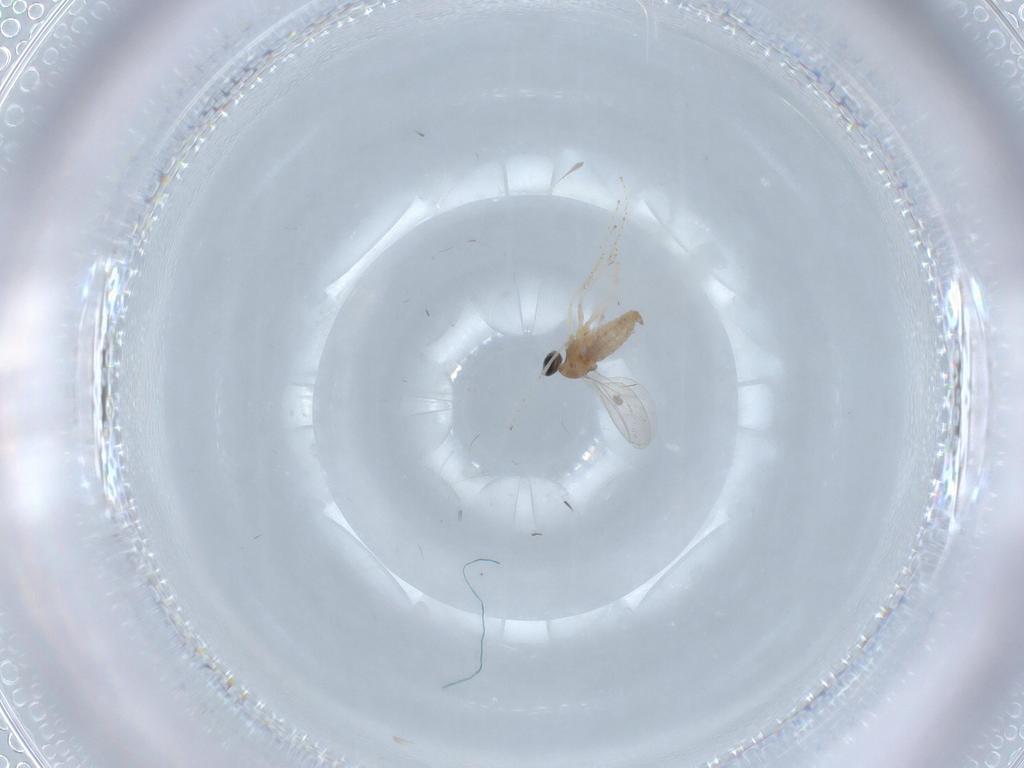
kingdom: Animalia
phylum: Arthropoda
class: Insecta
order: Diptera
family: Cecidomyiidae
